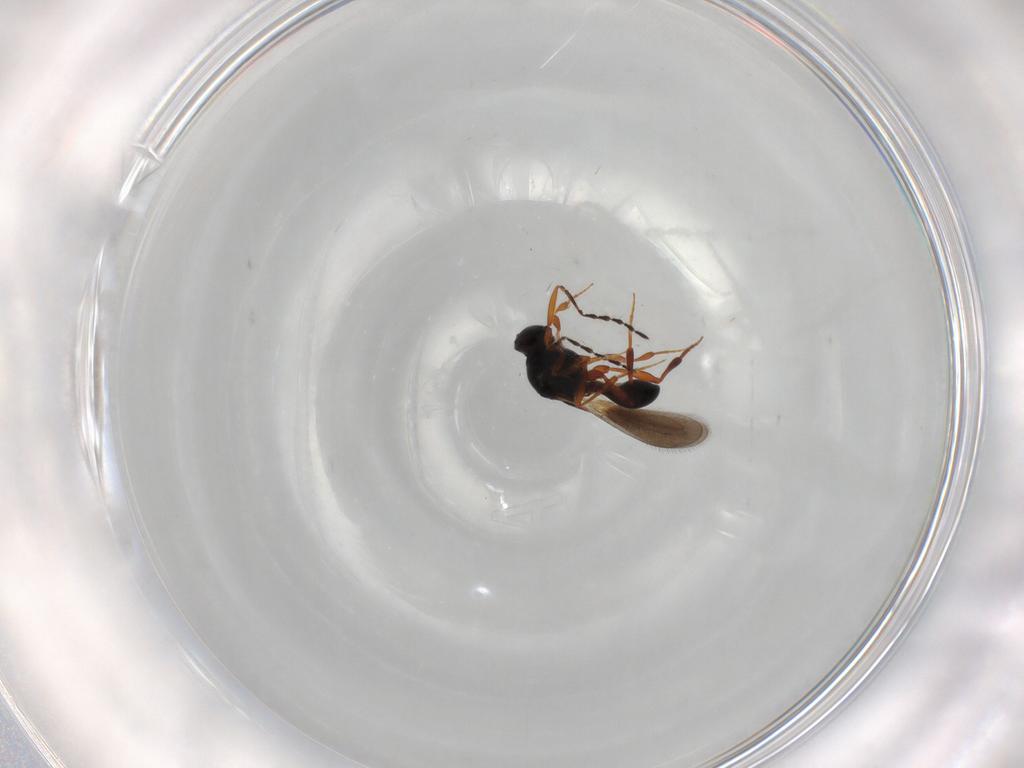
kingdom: Animalia
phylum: Arthropoda
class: Insecta
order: Hymenoptera
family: Platygastridae
